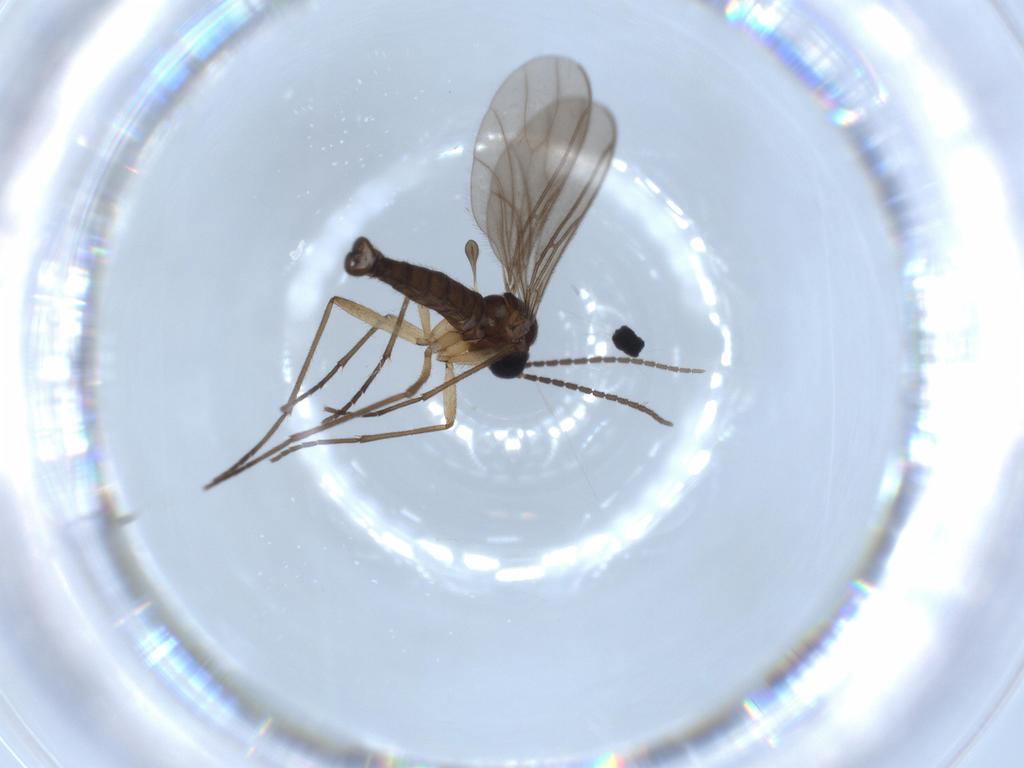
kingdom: Animalia
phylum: Arthropoda
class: Insecta
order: Diptera
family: Sciaridae
